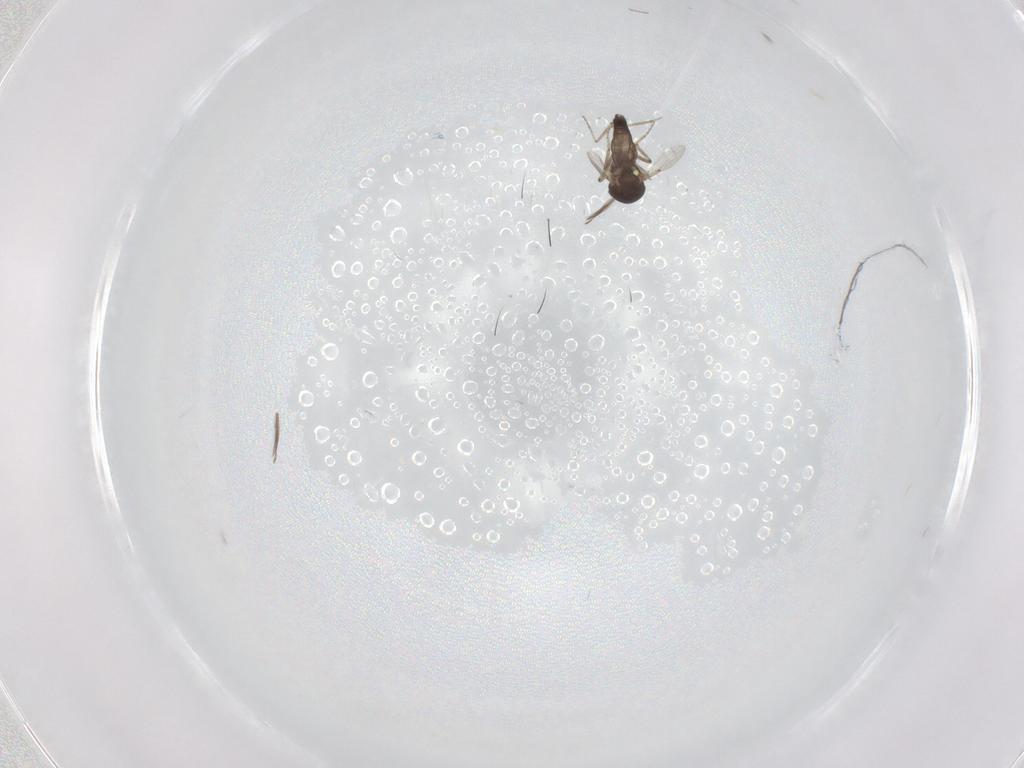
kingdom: Animalia
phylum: Arthropoda
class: Insecta
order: Diptera
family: Ceratopogonidae
